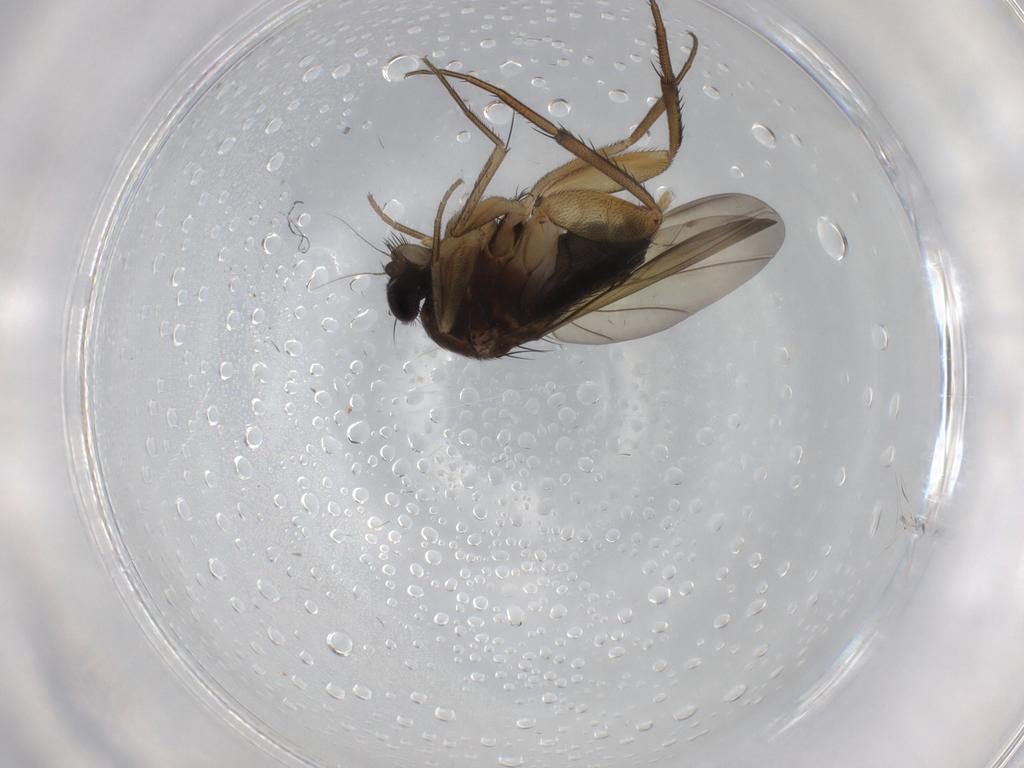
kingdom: Animalia
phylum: Arthropoda
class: Insecta
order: Diptera
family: Phoridae
